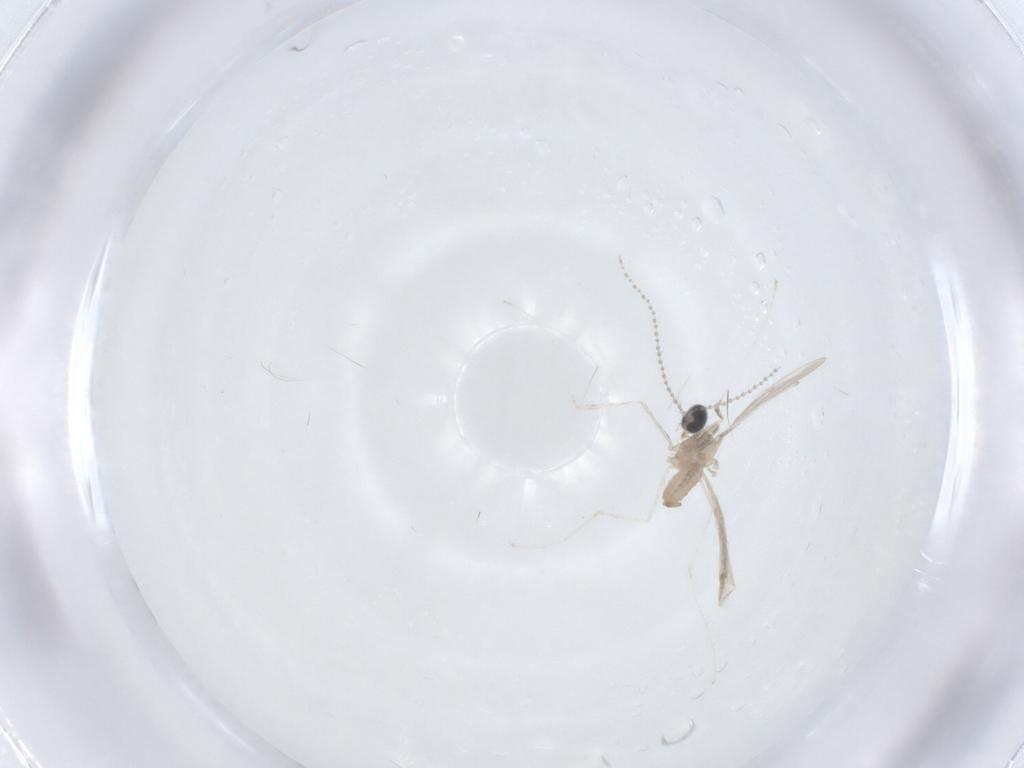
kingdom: Animalia
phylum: Arthropoda
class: Insecta
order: Diptera
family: Cecidomyiidae
